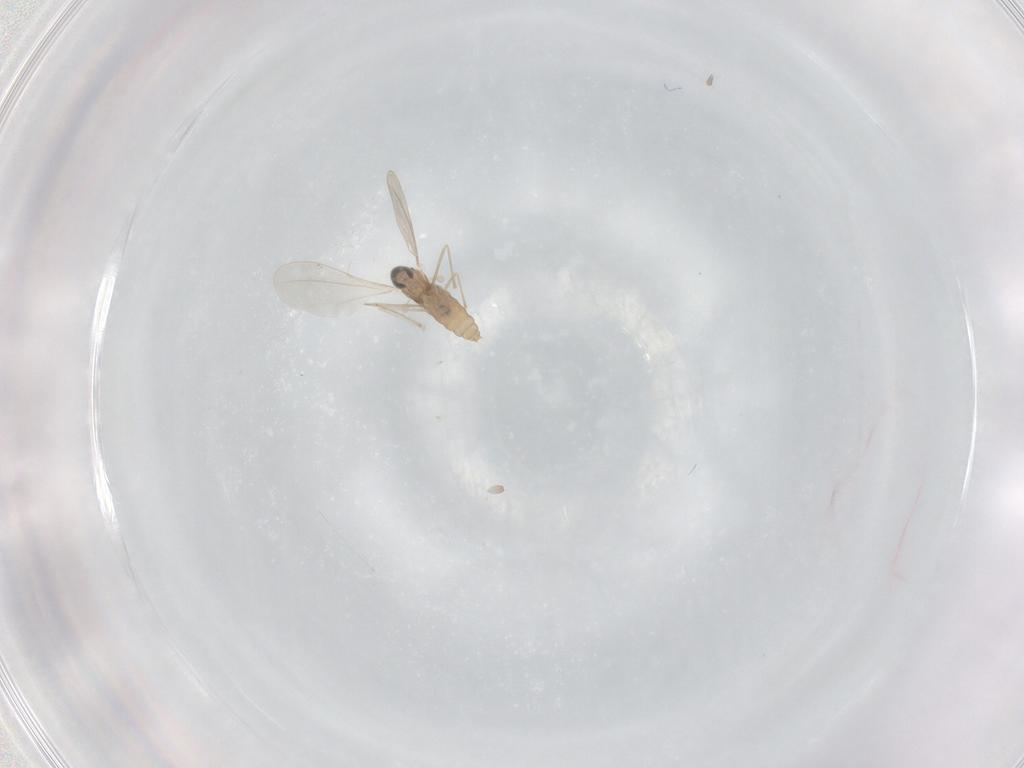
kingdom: Animalia
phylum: Arthropoda
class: Insecta
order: Diptera
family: Cecidomyiidae
